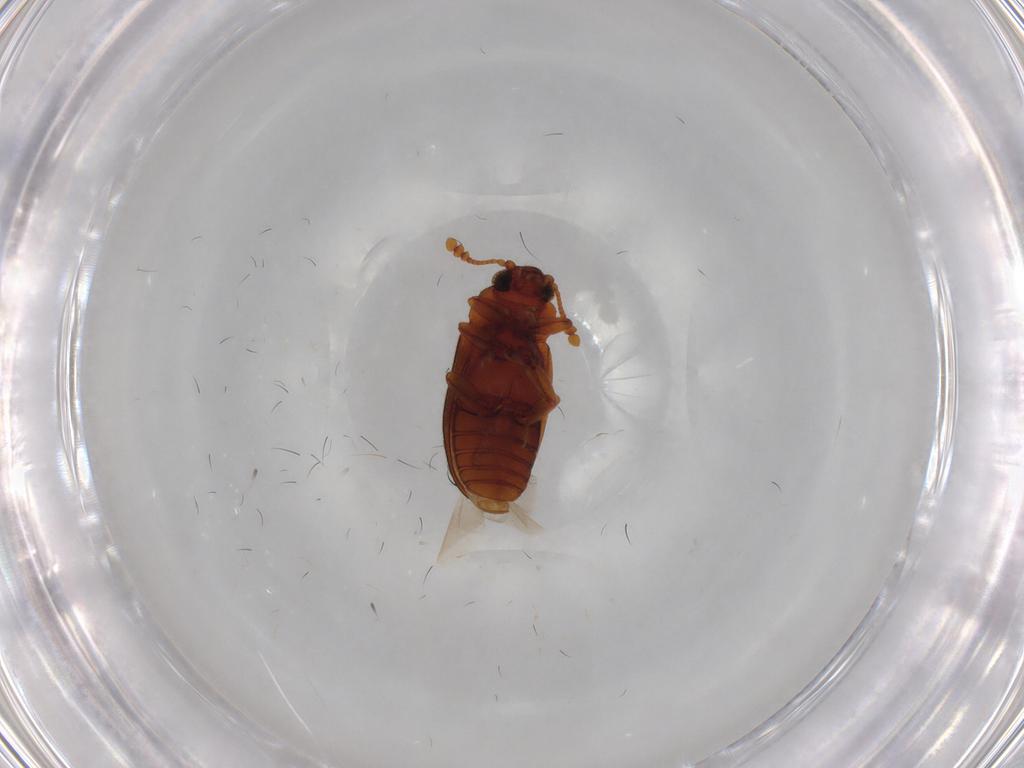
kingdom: Animalia
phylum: Arthropoda
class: Insecta
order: Coleoptera
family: Erotylidae
